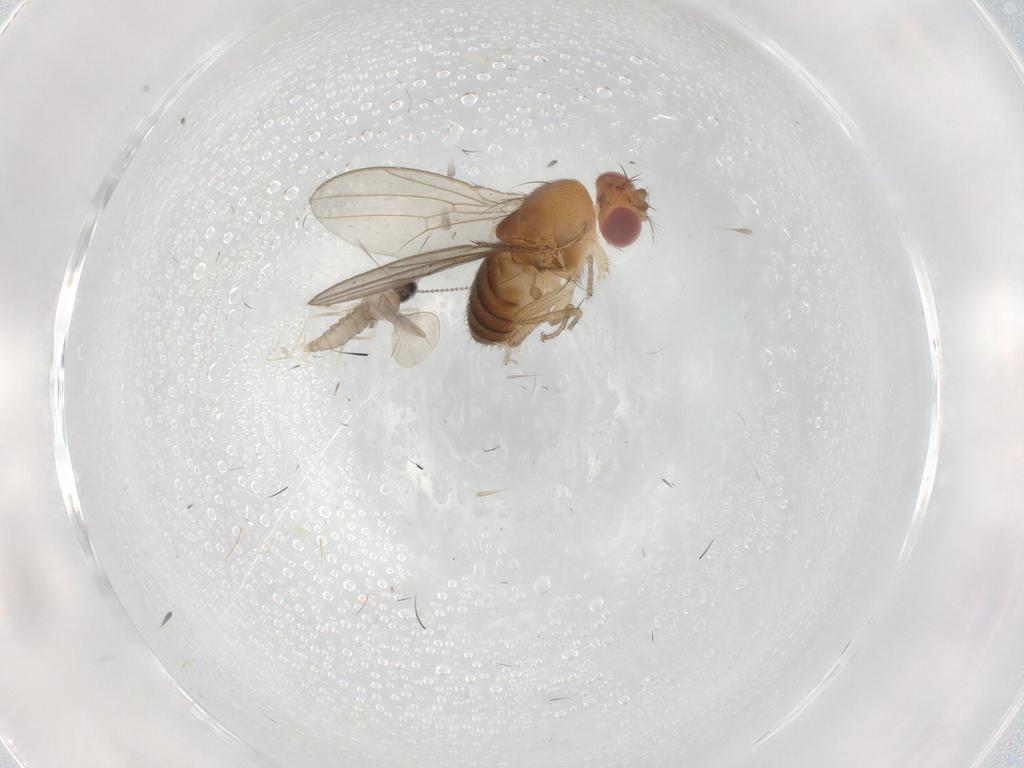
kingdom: Animalia
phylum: Arthropoda
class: Insecta
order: Diptera
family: Drosophilidae
